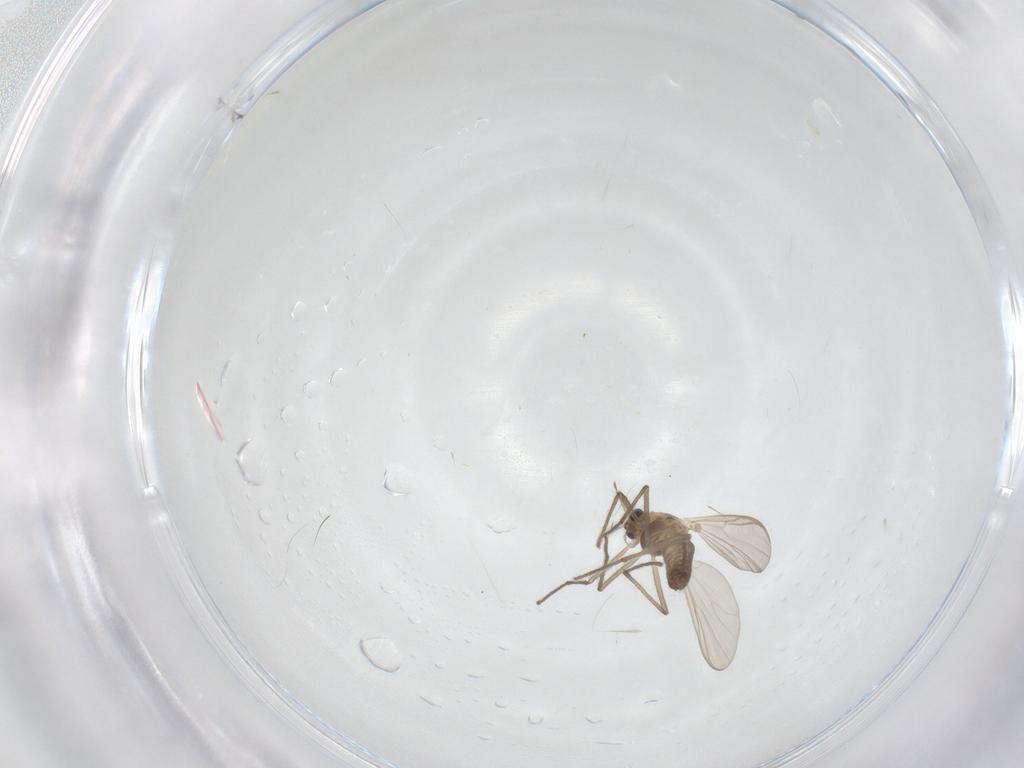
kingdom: Animalia
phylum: Arthropoda
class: Insecta
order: Diptera
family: Chironomidae
